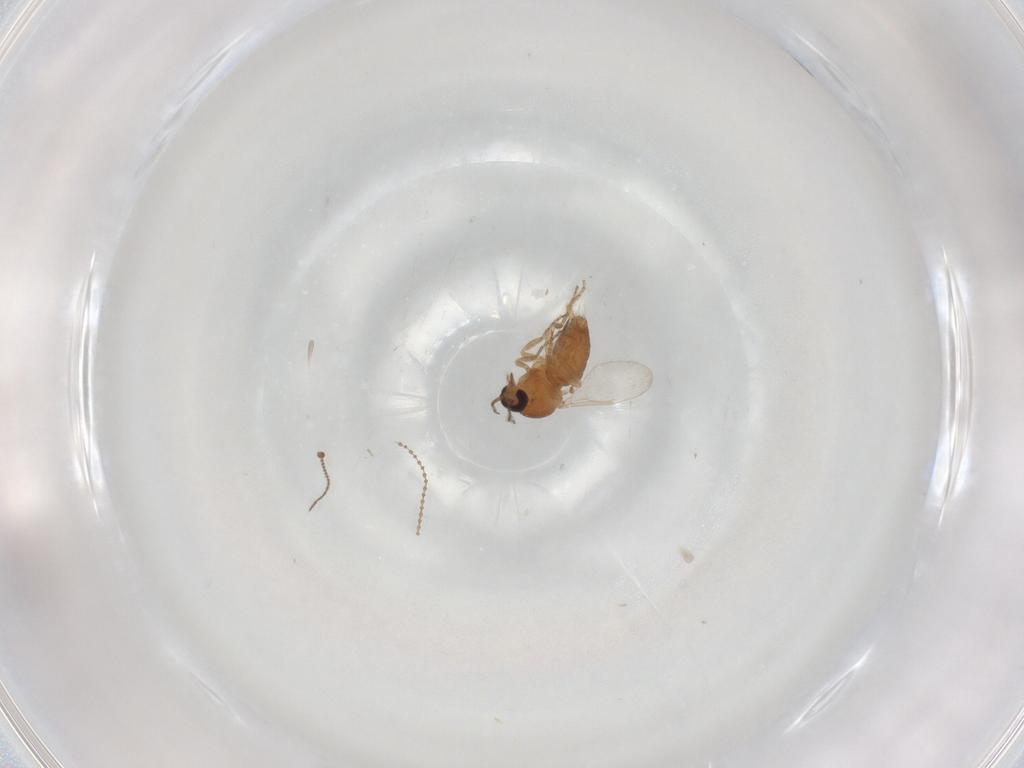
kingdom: Animalia
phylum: Arthropoda
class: Insecta
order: Diptera
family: Ceratopogonidae
